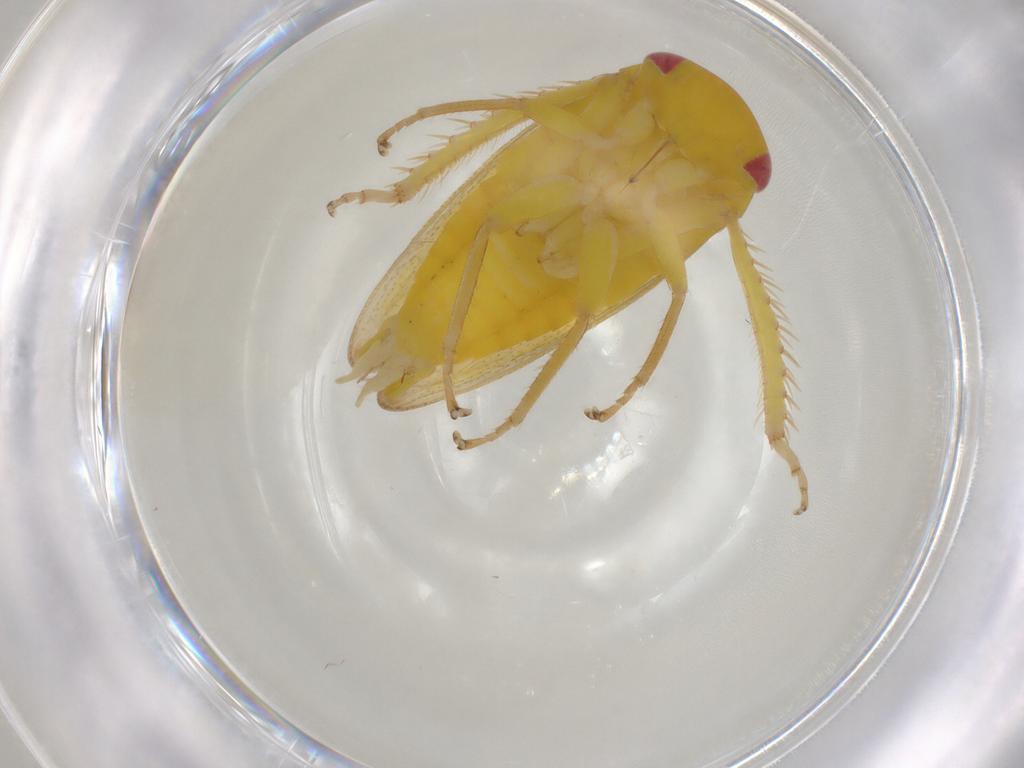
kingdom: Animalia
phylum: Arthropoda
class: Insecta
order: Hemiptera
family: Cicadellidae
